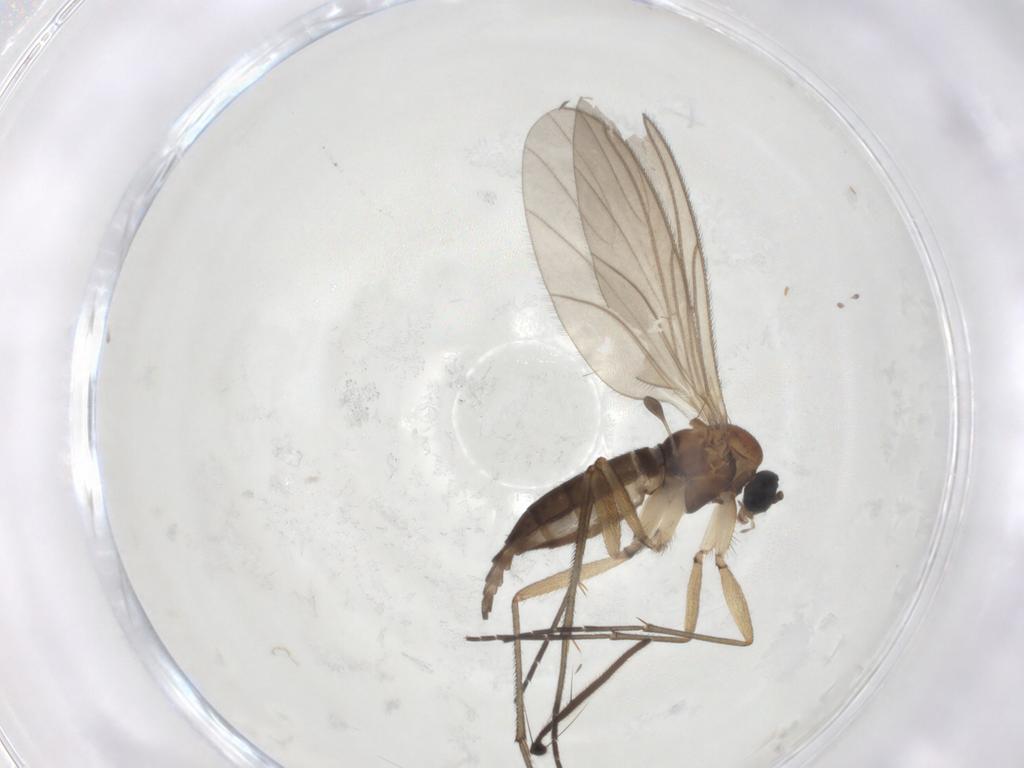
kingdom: Animalia
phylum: Arthropoda
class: Insecta
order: Diptera
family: Sciaridae
